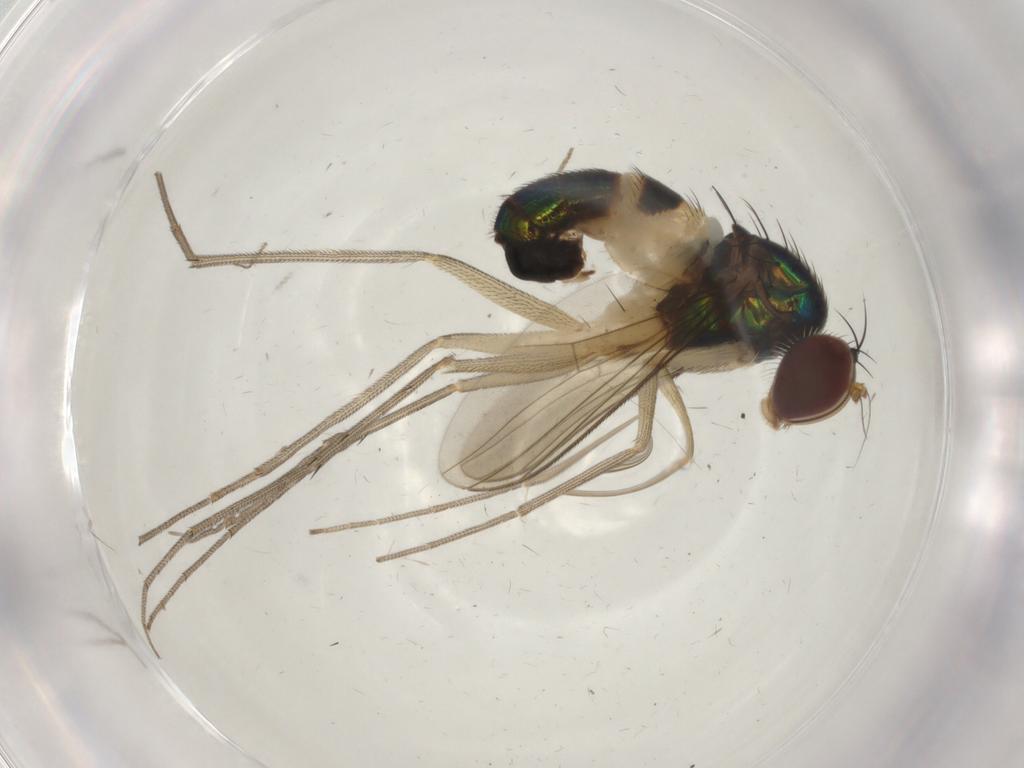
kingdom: Animalia
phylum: Arthropoda
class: Insecta
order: Diptera
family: Dolichopodidae
